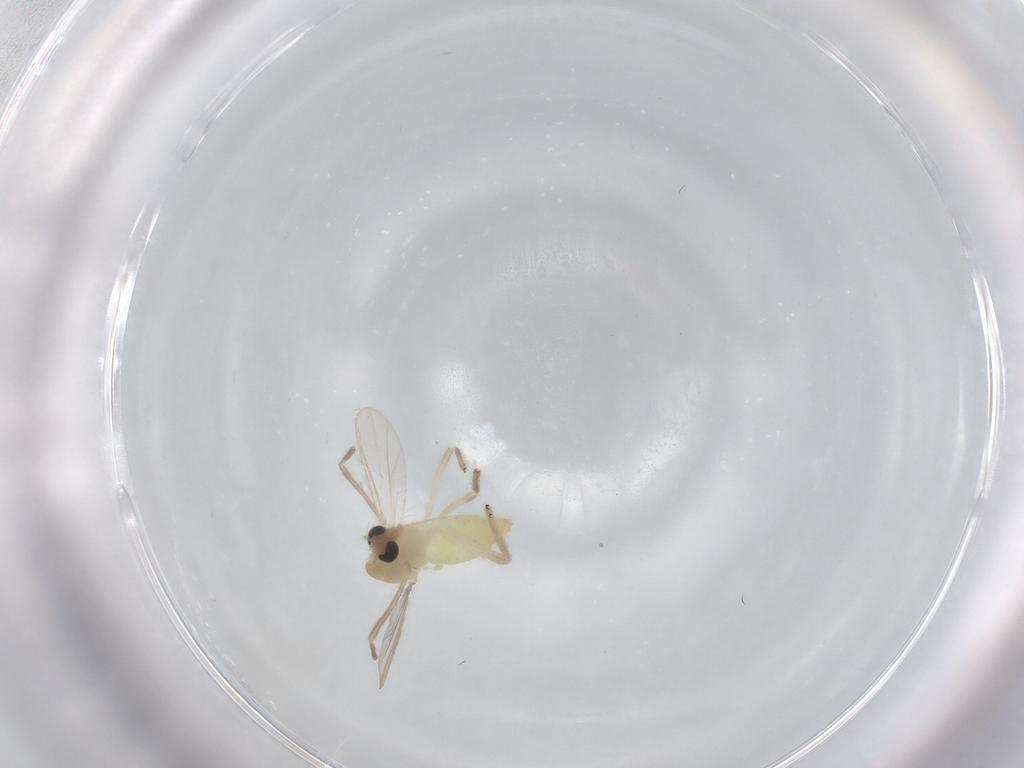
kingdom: Animalia
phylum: Arthropoda
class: Insecta
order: Diptera
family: Cecidomyiidae
